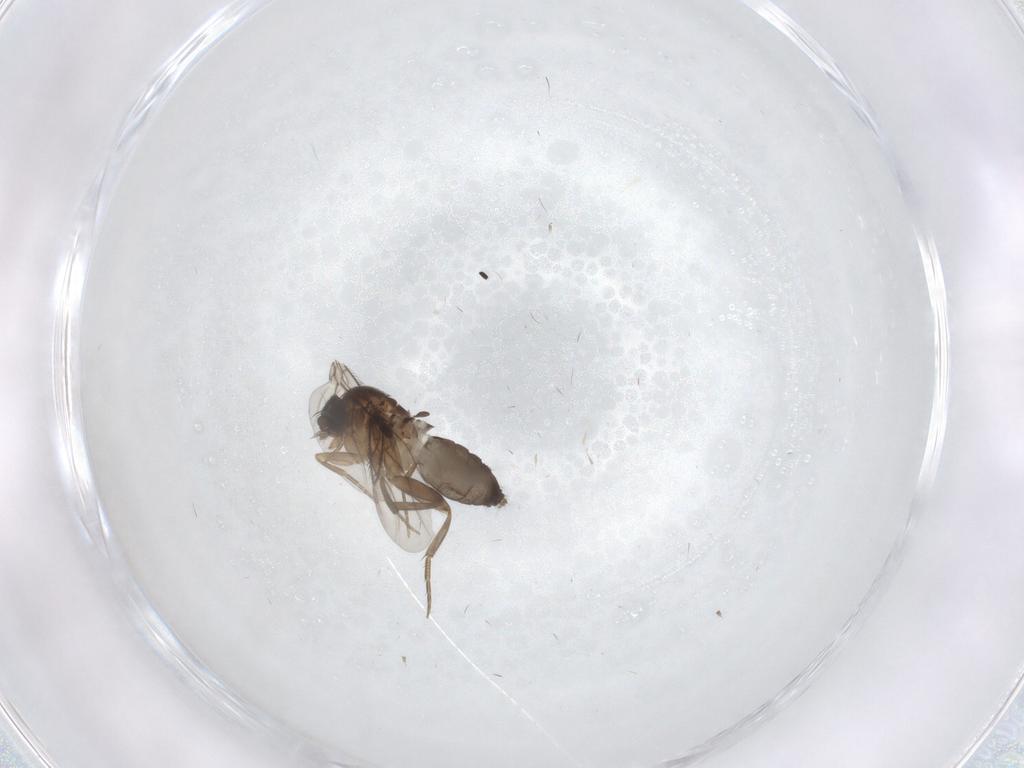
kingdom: Animalia
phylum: Arthropoda
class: Insecta
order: Diptera
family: Phoridae
